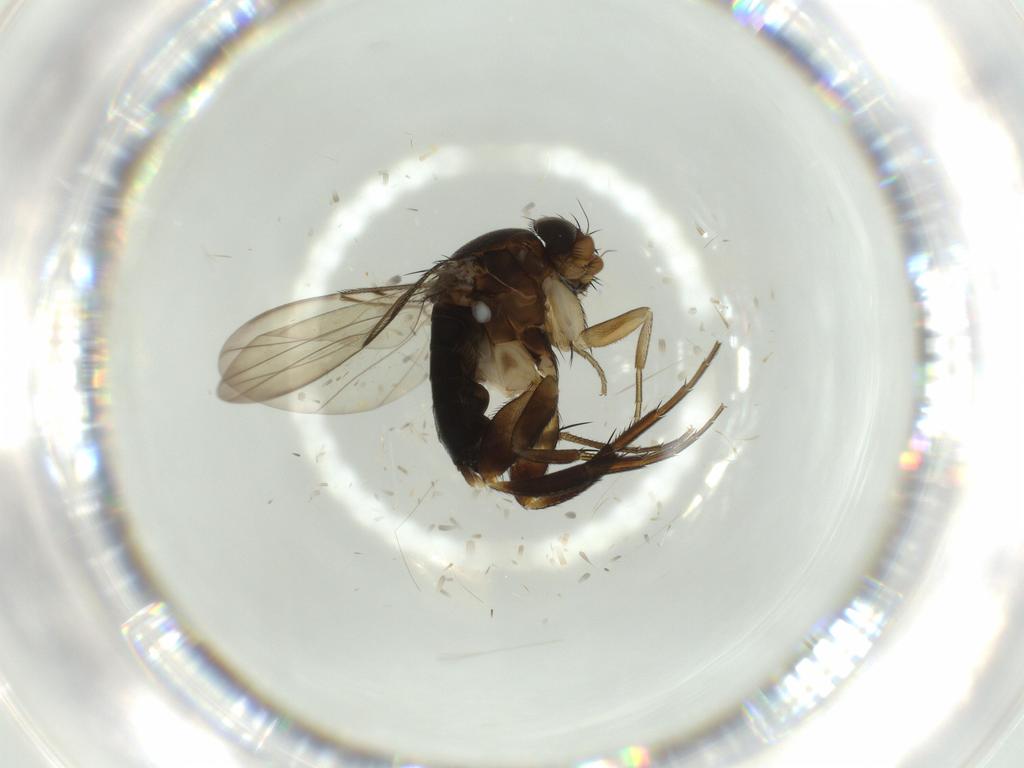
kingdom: Animalia
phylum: Arthropoda
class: Insecta
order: Diptera
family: Phoridae
